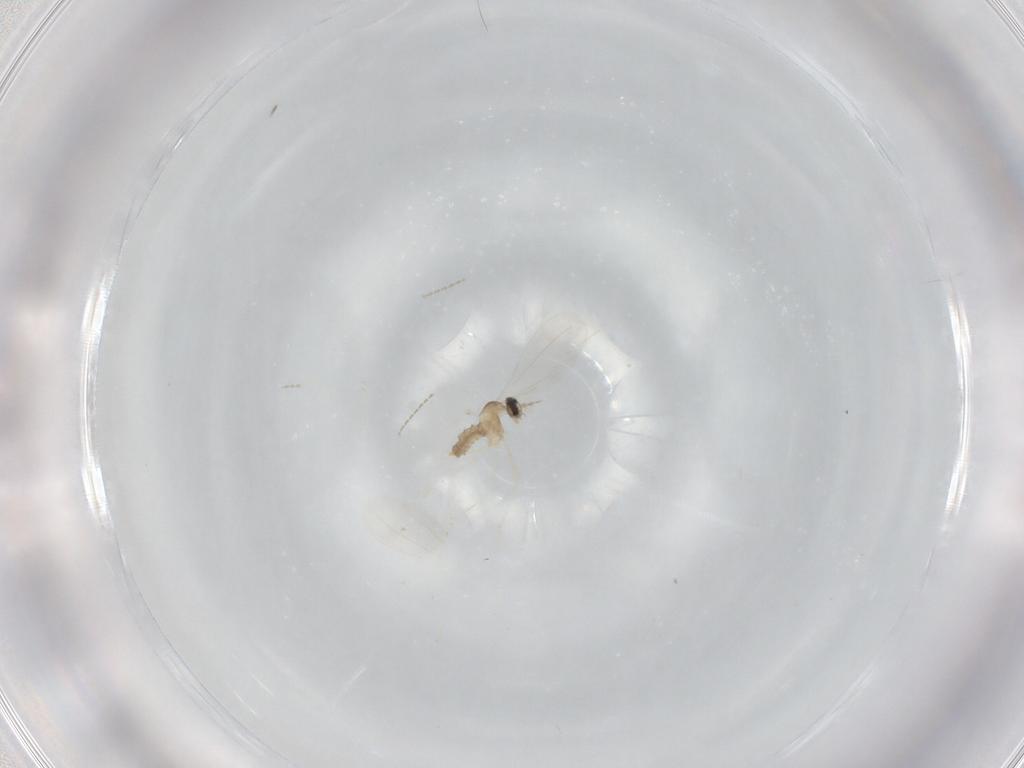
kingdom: Animalia
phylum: Arthropoda
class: Insecta
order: Diptera
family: Cecidomyiidae
